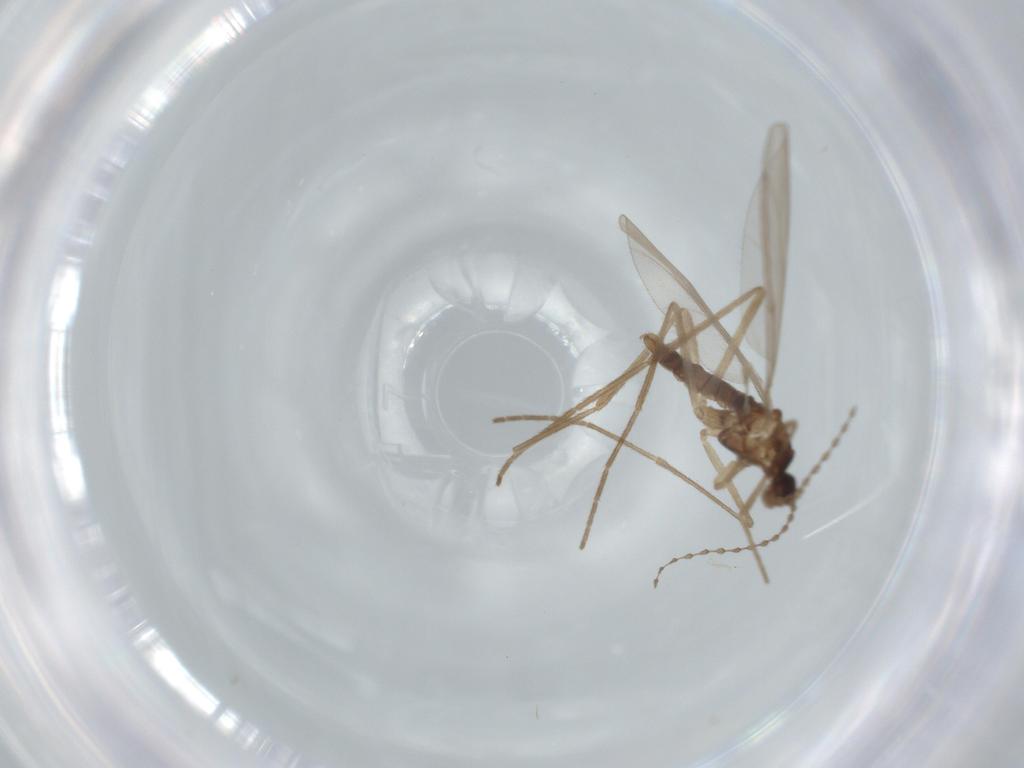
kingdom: Animalia
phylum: Arthropoda
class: Insecta
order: Diptera
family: Cecidomyiidae
